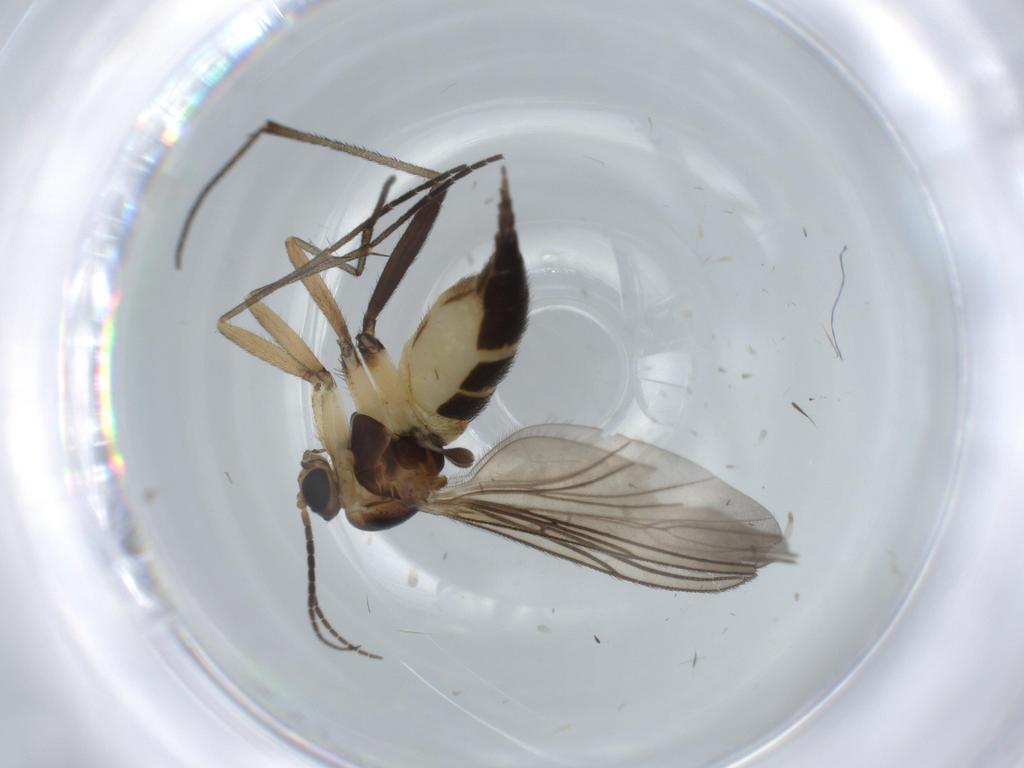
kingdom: Animalia
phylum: Arthropoda
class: Insecta
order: Diptera
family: Sciaridae
